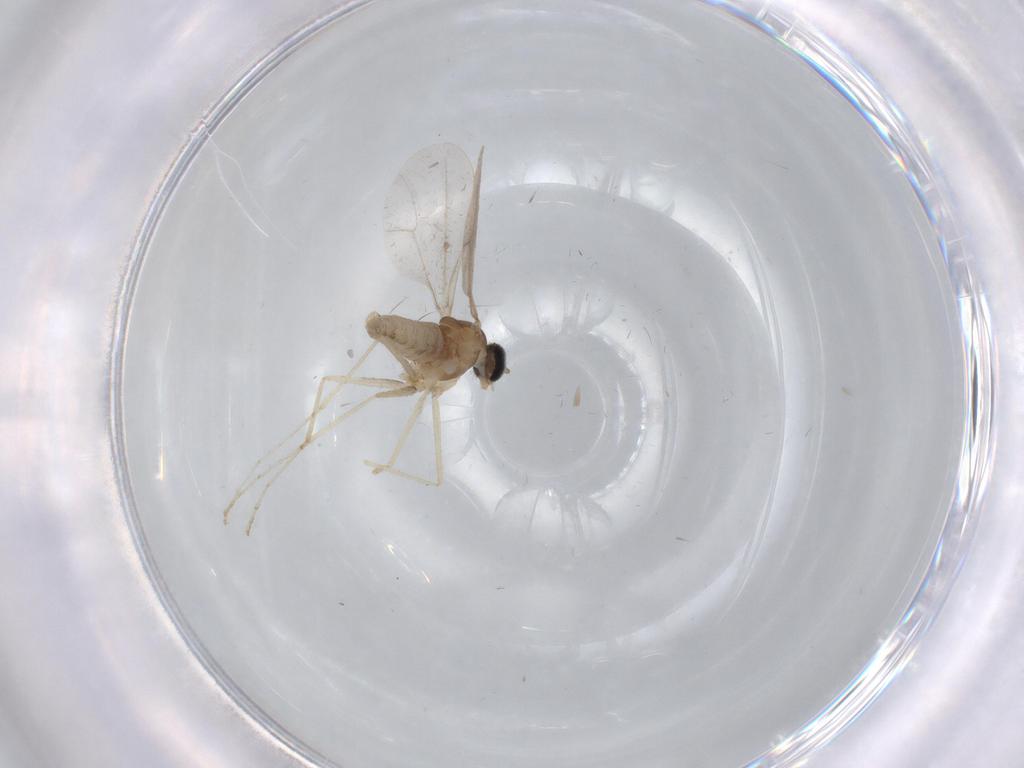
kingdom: Animalia
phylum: Arthropoda
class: Insecta
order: Diptera
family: Cecidomyiidae
